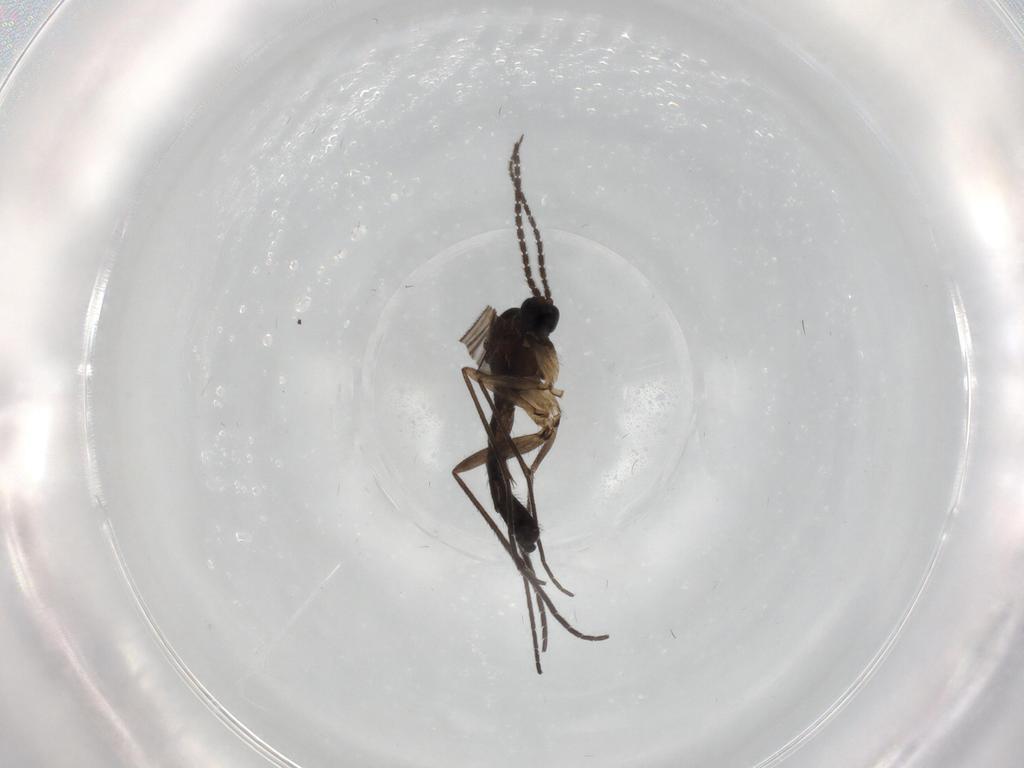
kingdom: Animalia
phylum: Arthropoda
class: Insecta
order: Diptera
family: Sciaridae
